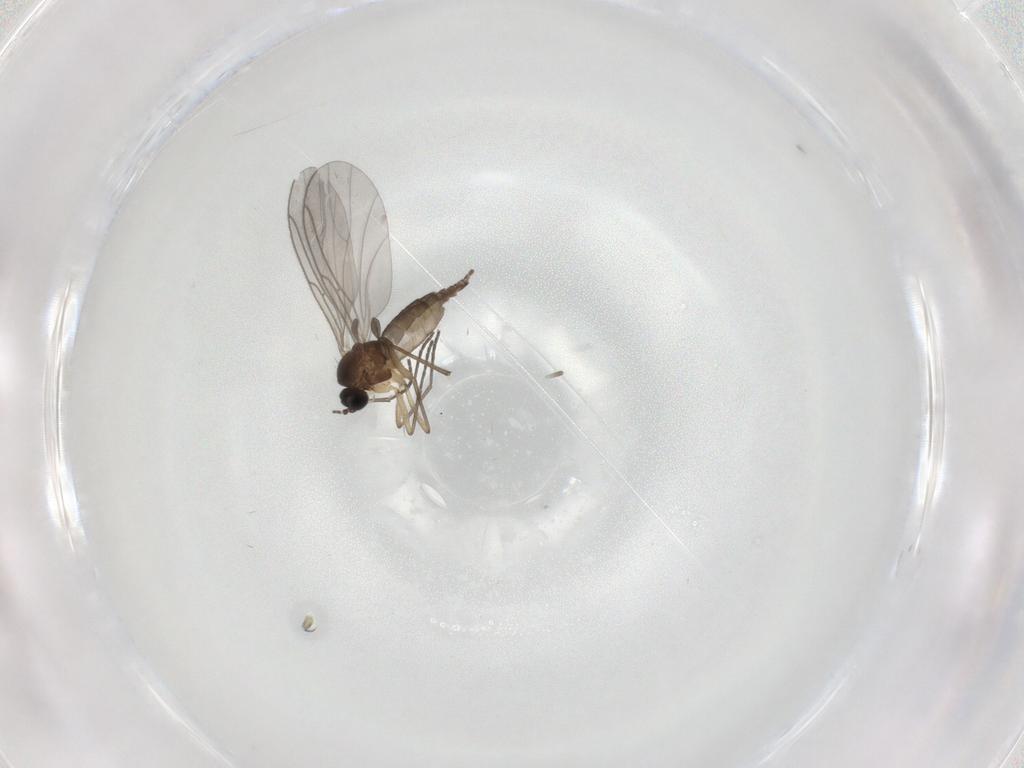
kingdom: Animalia
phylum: Arthropoda
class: Insecta
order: Diptera
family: Sciaridae
